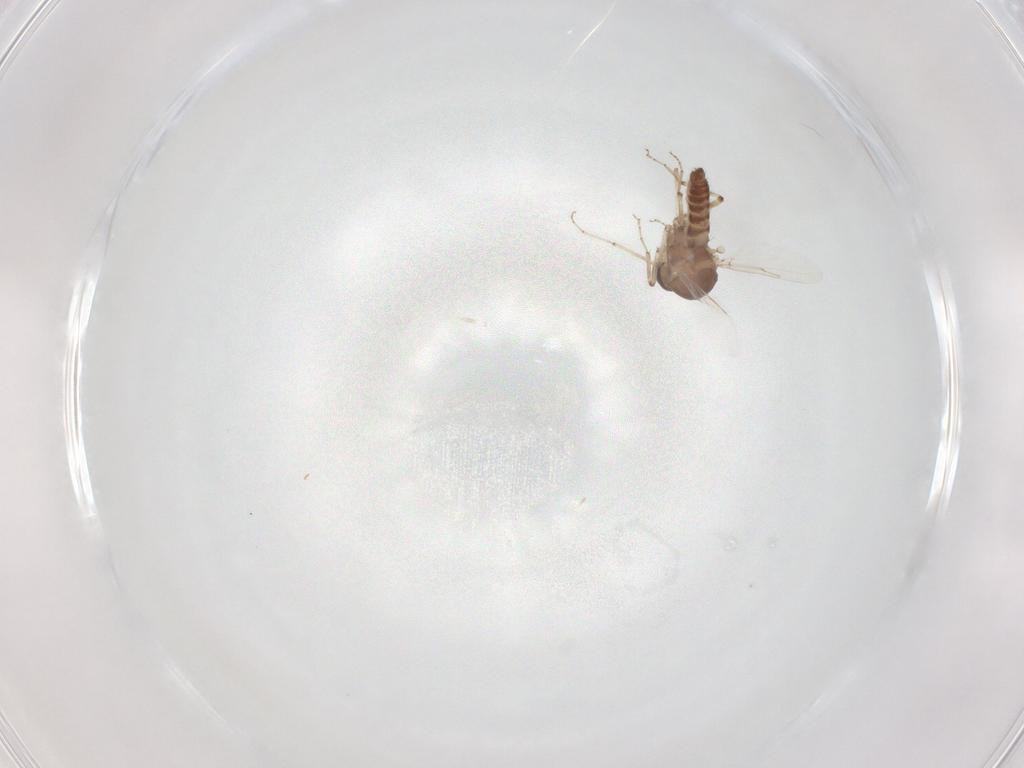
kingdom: Animalia
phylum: Arthropoda
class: Insecta
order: Diptera
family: Ceratopogonidae
